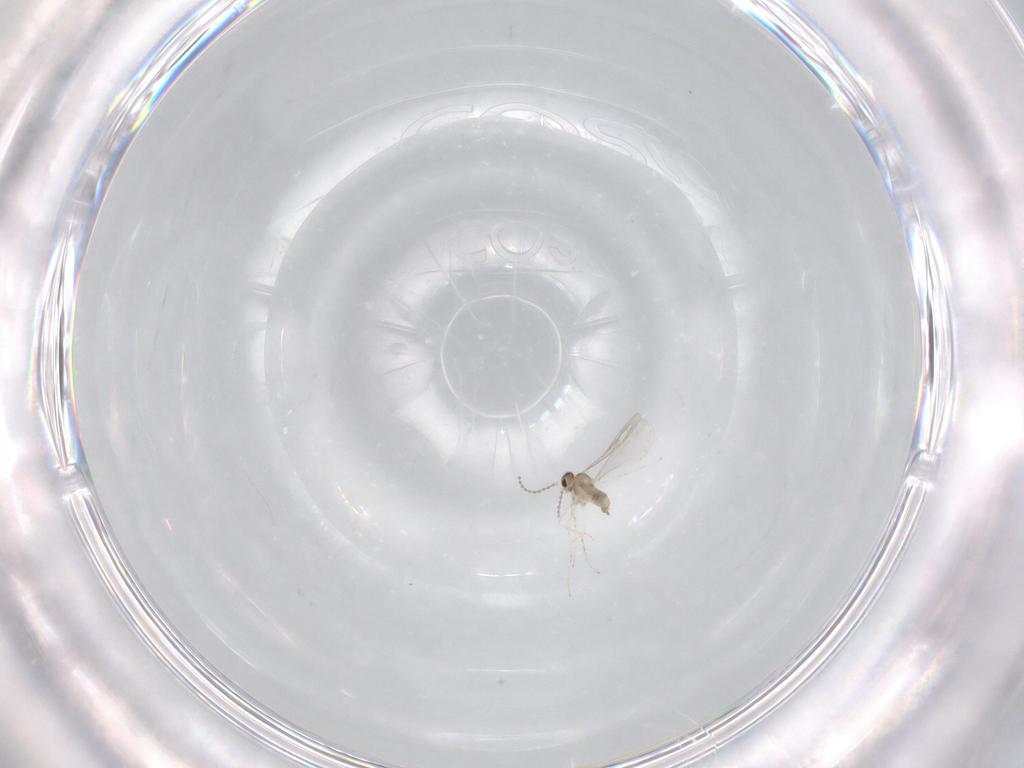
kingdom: Animalia
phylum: Arthropoda
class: Insecta
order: Diptera
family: Cecidomyiidae
